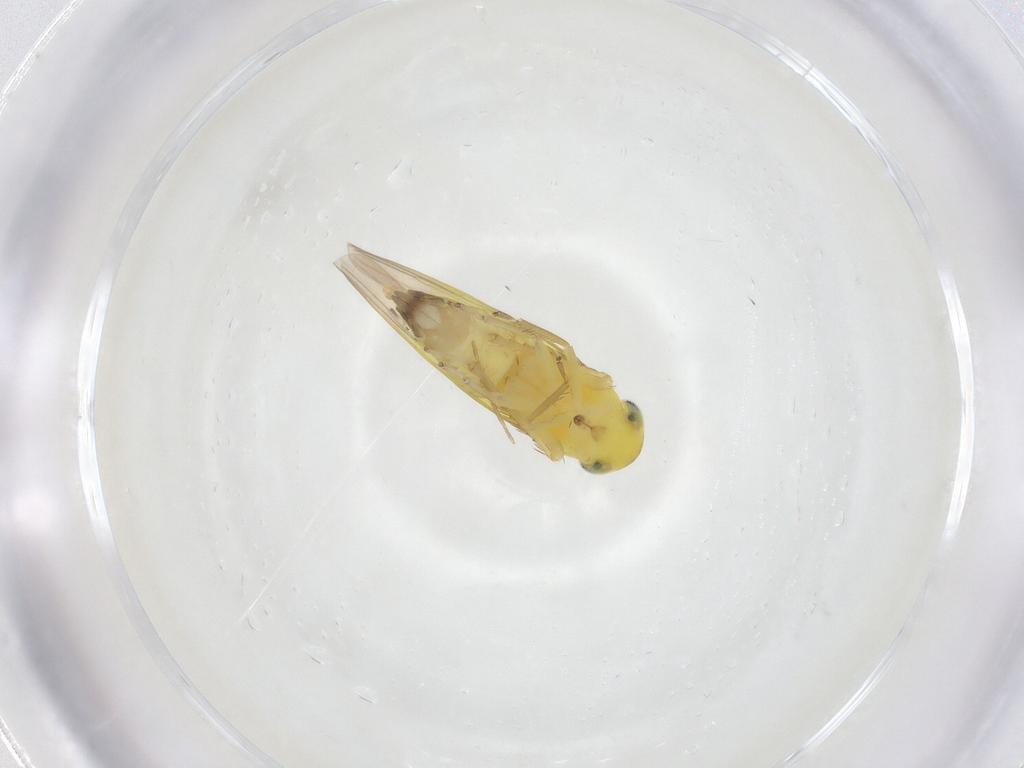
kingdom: Animalia
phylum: Arthropoda
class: Insecta
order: Hemiptera
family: Cicadellidae
